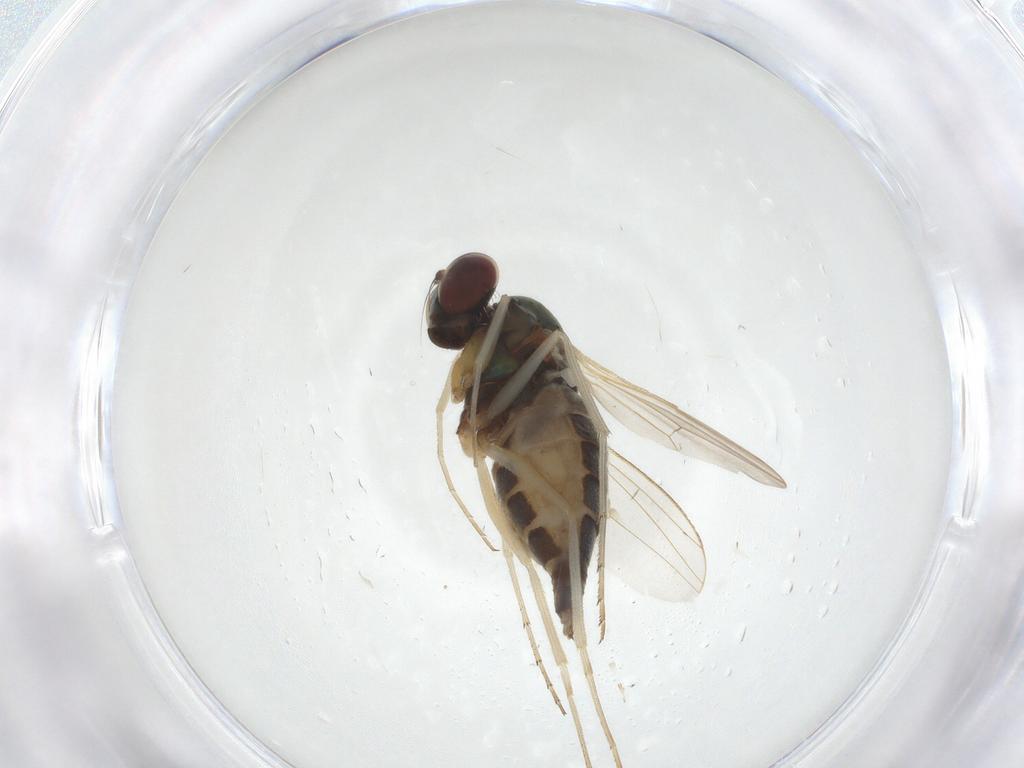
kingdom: Animalia
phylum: Arthropoda
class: Insecta
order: Diptera
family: Dolichopodidae
